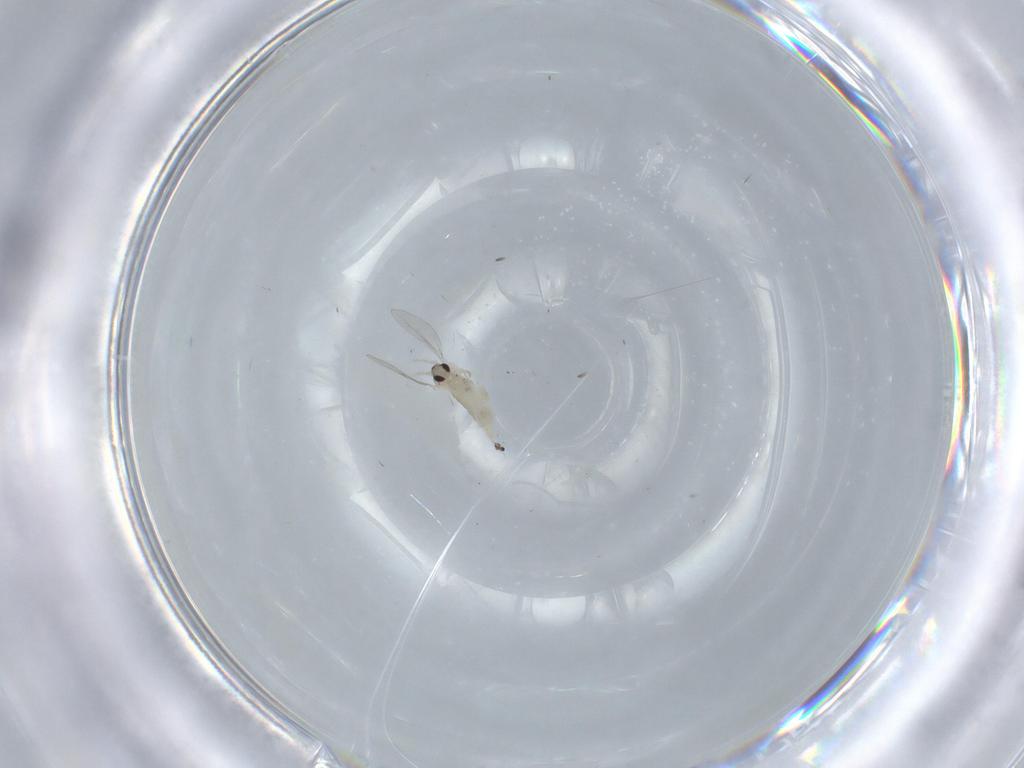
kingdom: Animalia
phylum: Arthropoda
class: Insecta
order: Diptera
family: Cecidomyiidae
